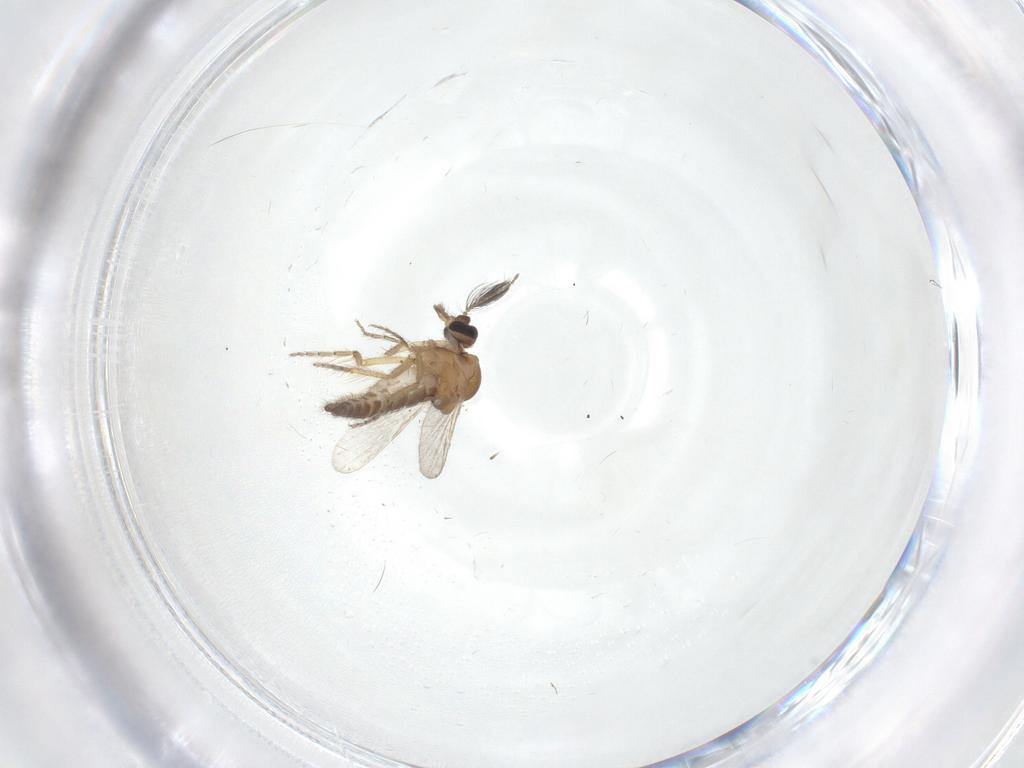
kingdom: Animalia
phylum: Arthropoda
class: Insecta
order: Diptera
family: Ceratopogonidae
